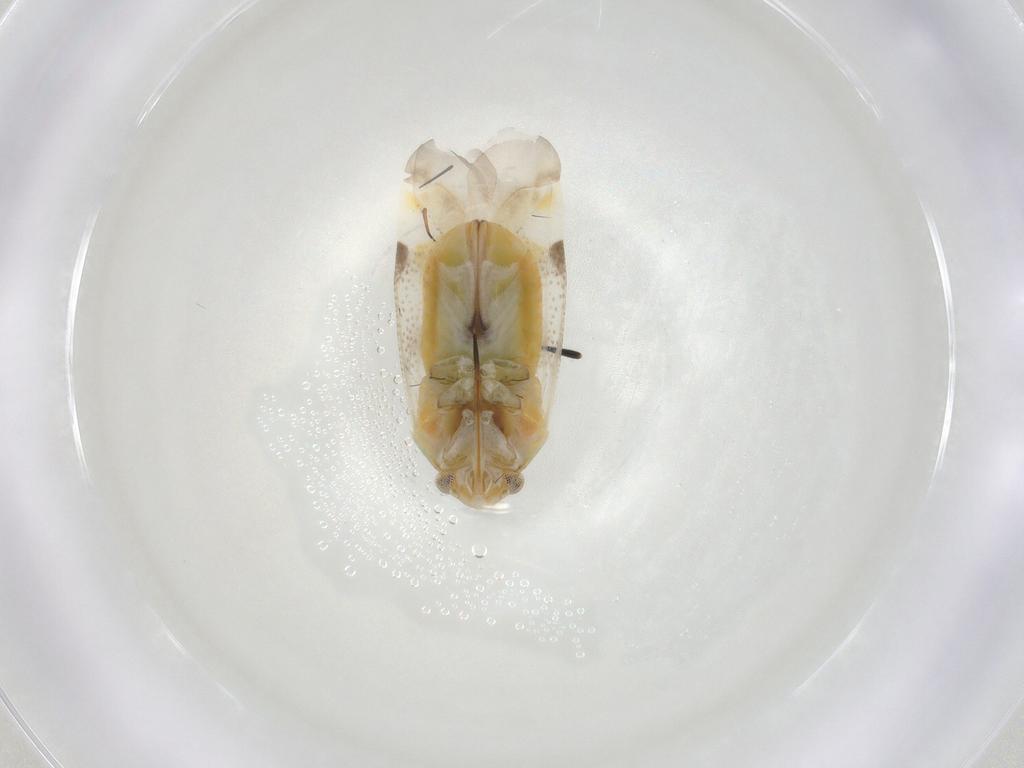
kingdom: Animalia
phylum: Arthropoda
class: Insecta
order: Hemiptera
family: Rhyparochromidae
